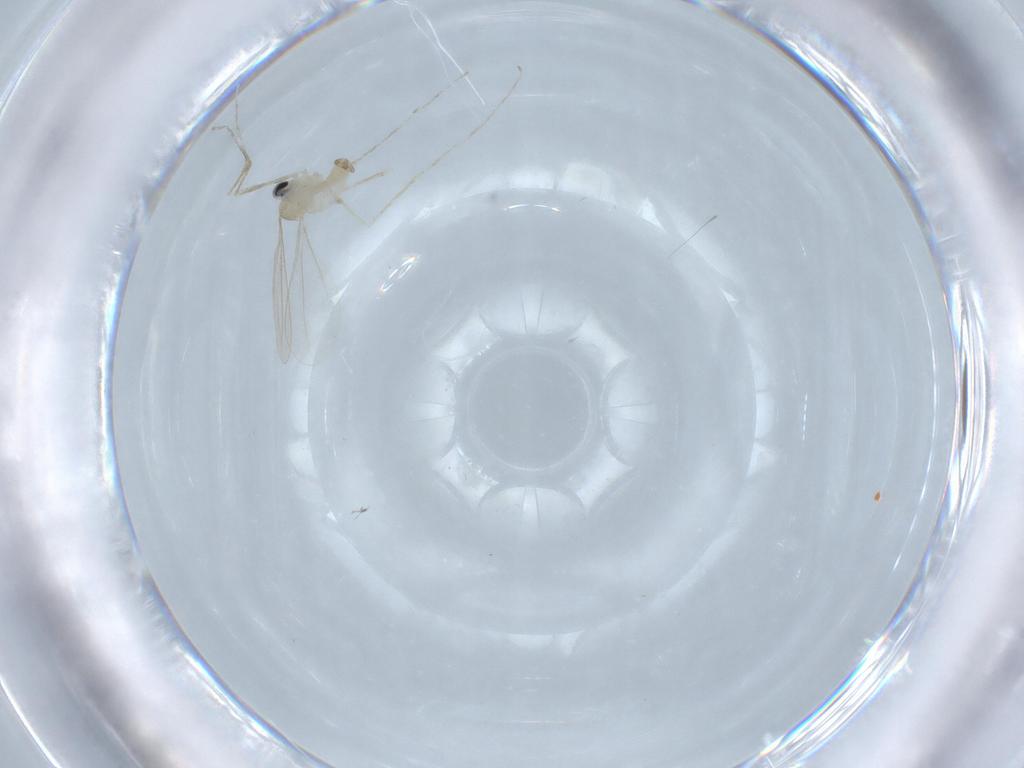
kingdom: Animalia
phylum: Arthropoda
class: Insecta
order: Diptera
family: Cecidomyiidae
